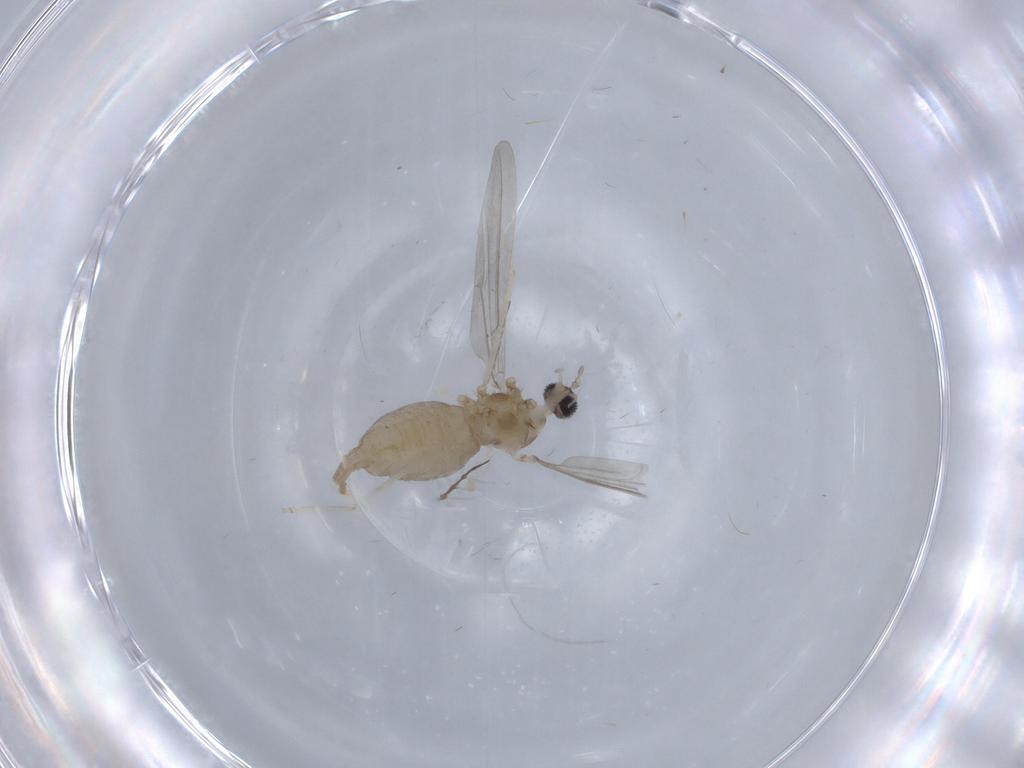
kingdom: Animalia
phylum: Arthropoda
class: Insecta
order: Diptera
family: Cecidomyiidae
